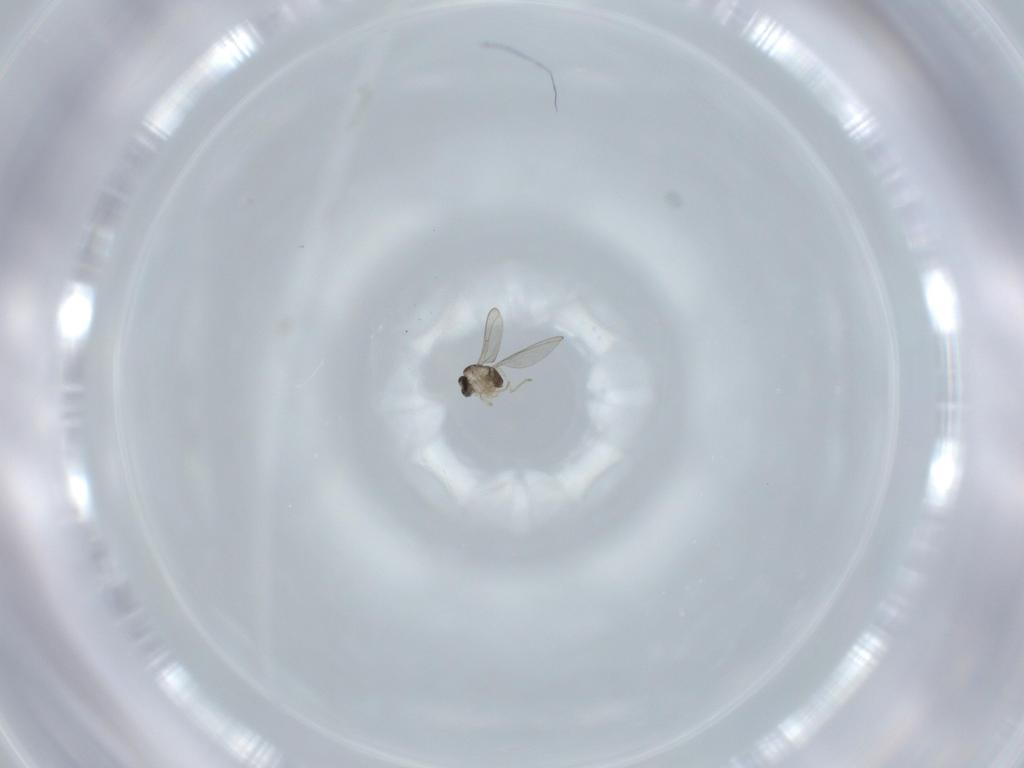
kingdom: Animalia
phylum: Arthropoda
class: Insecta
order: Diptera
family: Cecidomyiidae
